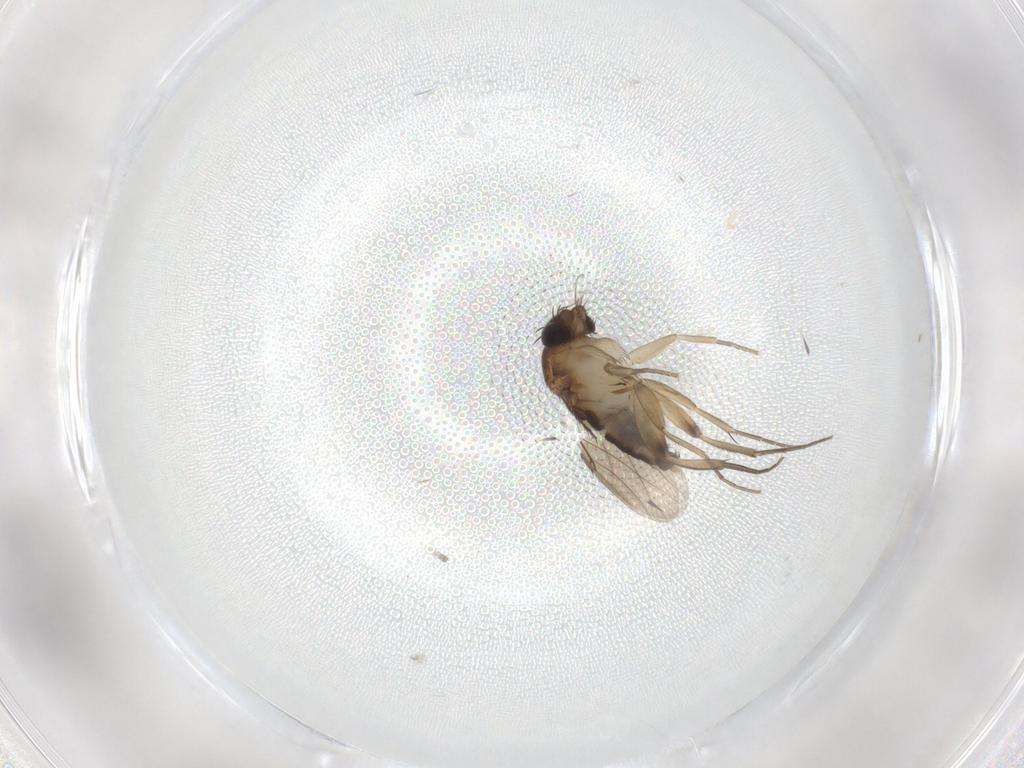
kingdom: Animalia
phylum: Arthropoda
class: Insecta
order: Diptera
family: Phoridae
